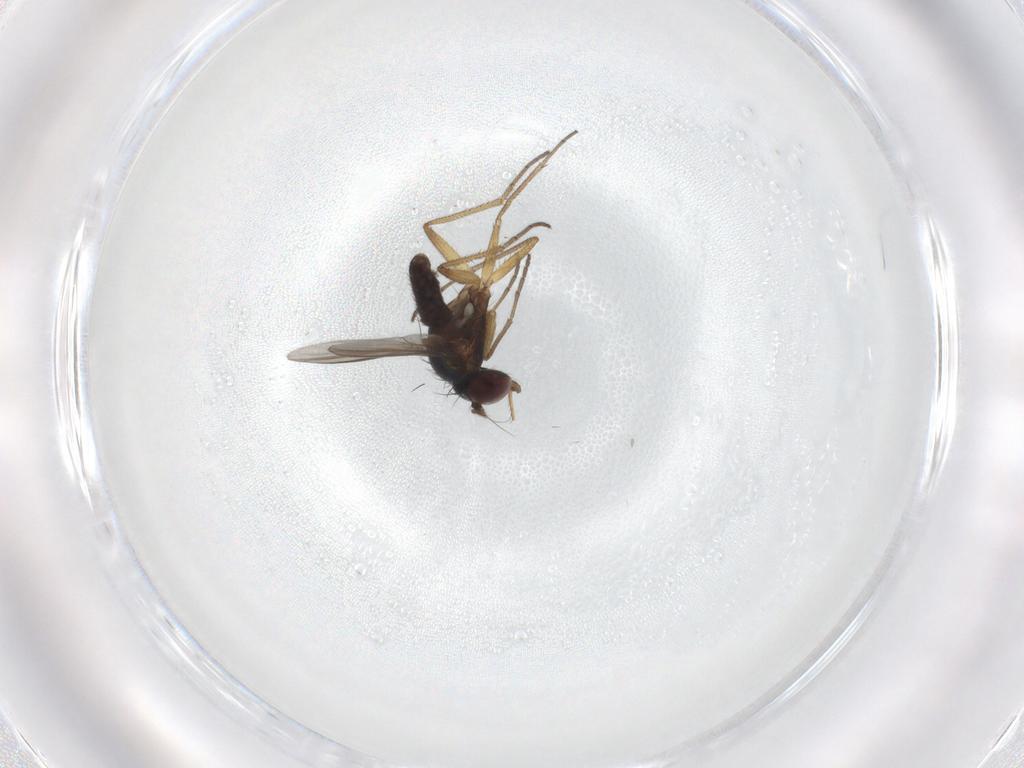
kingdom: Animalia
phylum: Arthropoda
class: Insecta
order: Diptera
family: Dolichopodidae
